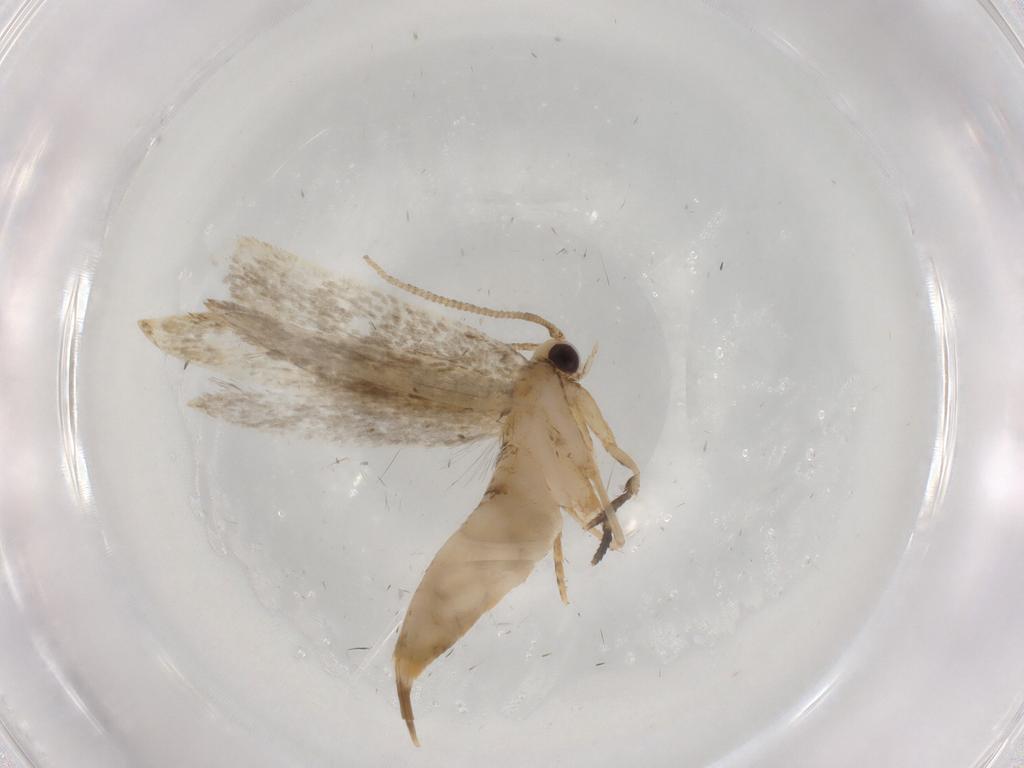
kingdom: Animalia
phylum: Arthropoda
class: Insecta
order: Lepidoptera
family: Tineidae
